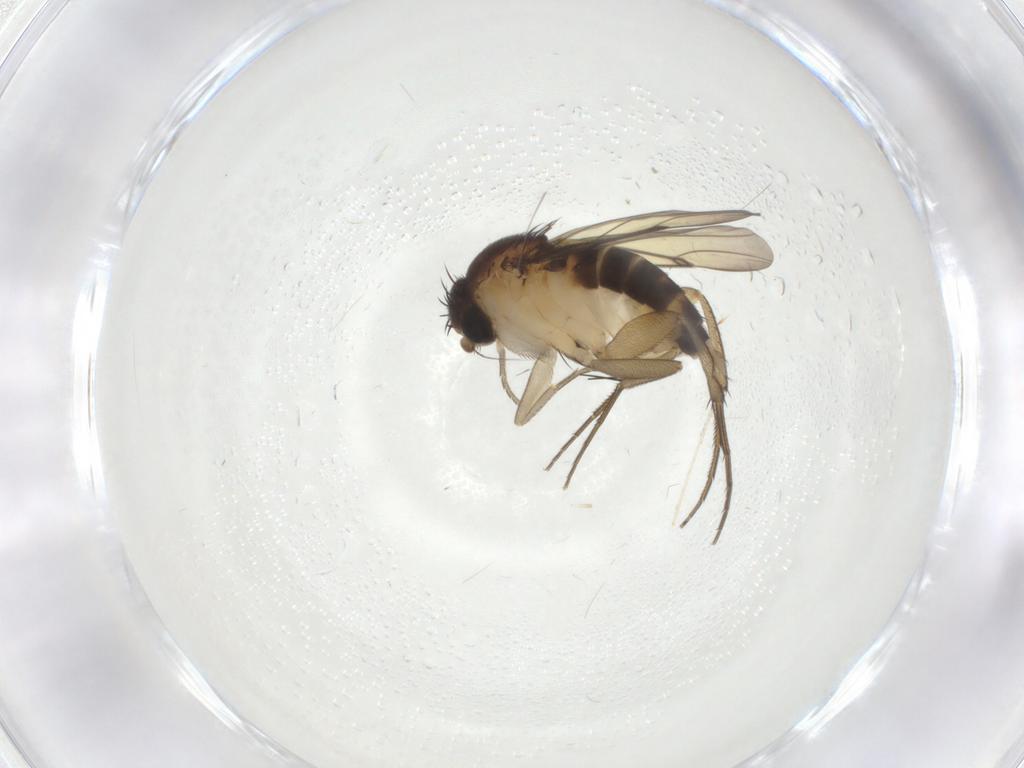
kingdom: Animalia
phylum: Arthropoda
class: Insecta
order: Diptera
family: Cecidomyiidae
